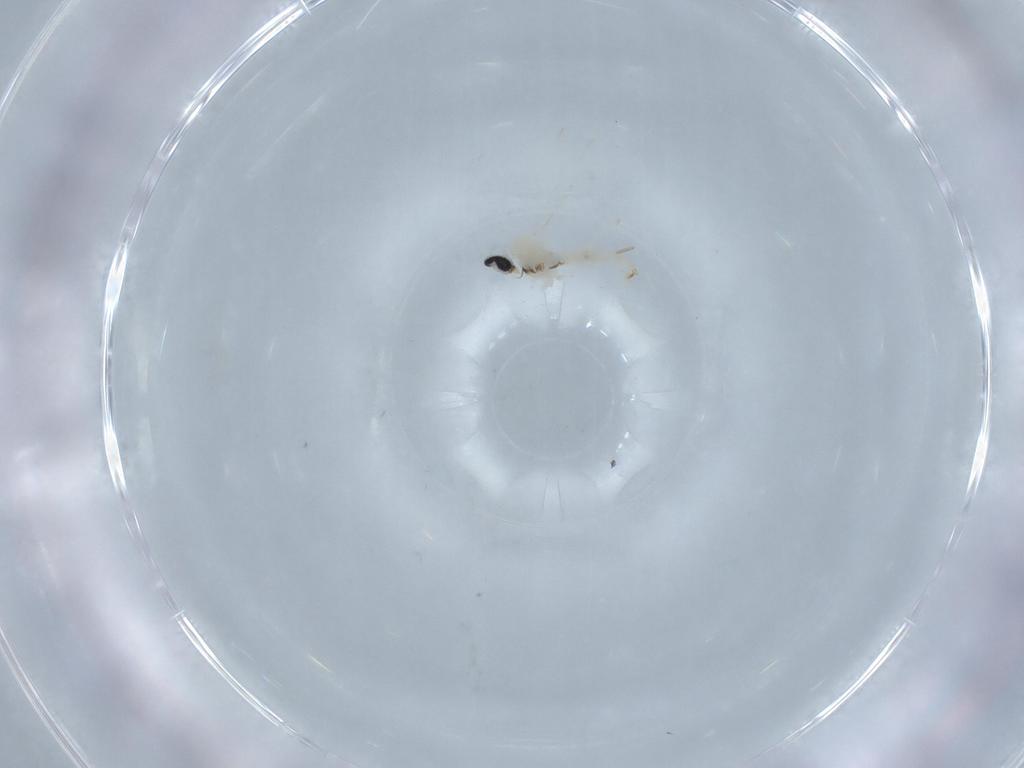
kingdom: Animalia
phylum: Arthropoda
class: Insecta
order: Diptera
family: Cecidomyiidae
